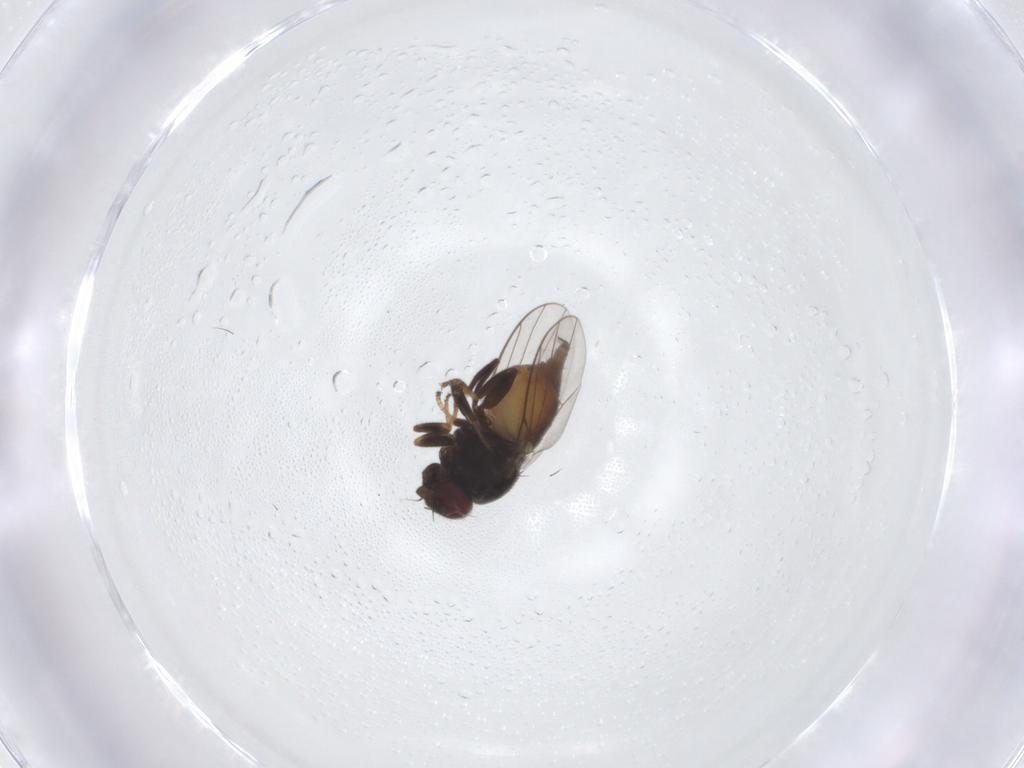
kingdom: Animalia
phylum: Arthropoda
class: Insecta
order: Diptera
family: Chloropidae
